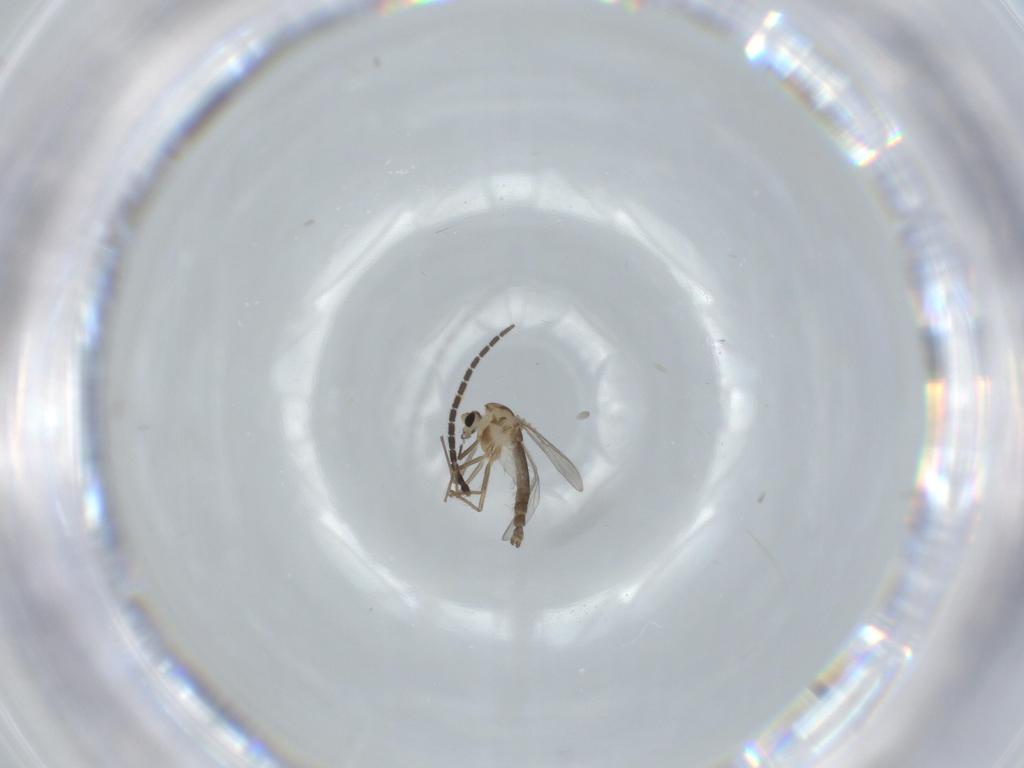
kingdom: Animalia
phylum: Arthropoda
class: Insecta
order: Diptera
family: Sciaridae
